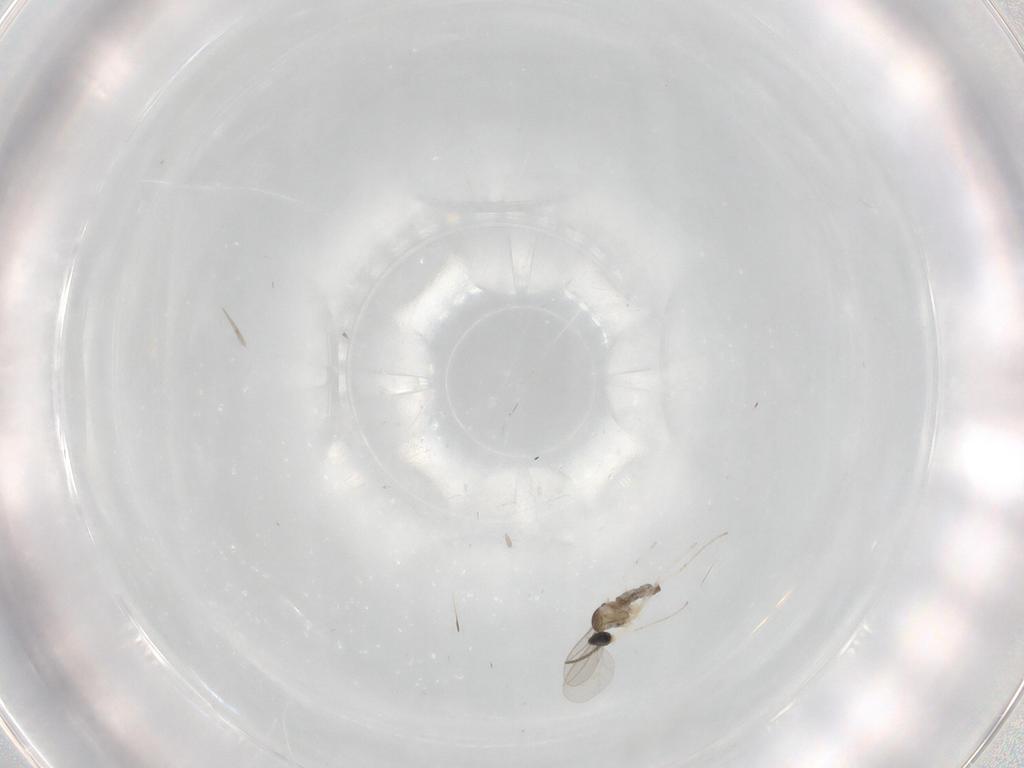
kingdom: Animalia
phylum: Arthropoda
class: Insecta
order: Diptera
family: Cecidomyiidae
